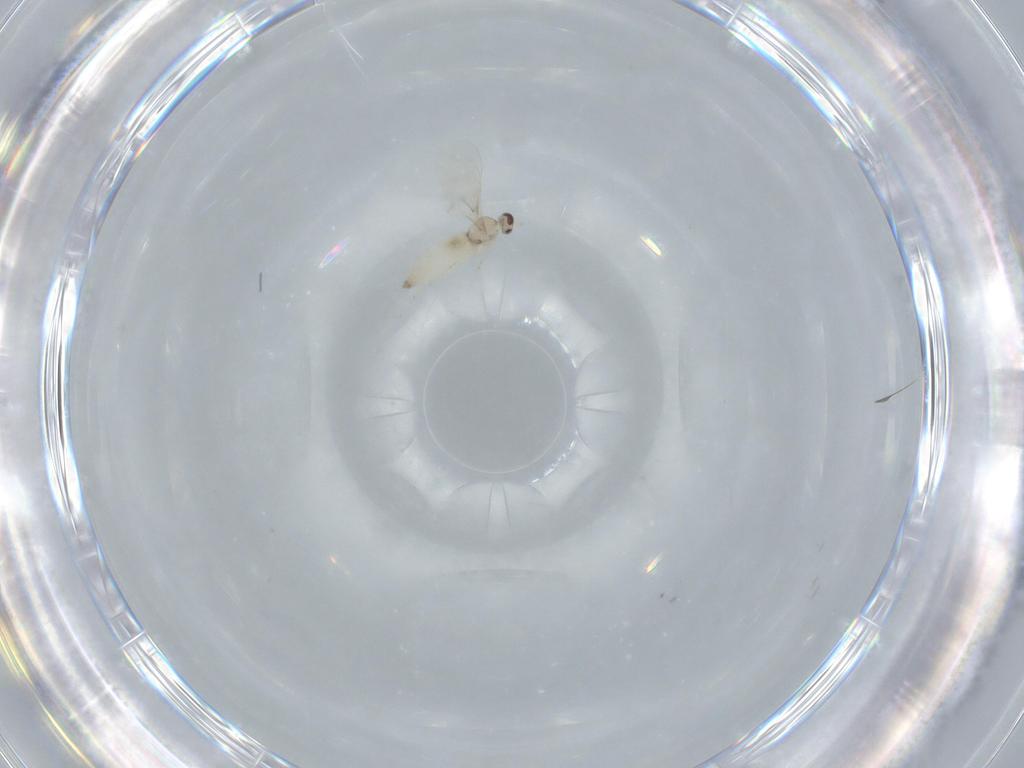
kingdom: Animalia
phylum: Arthropoda
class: Insecta
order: Diptera
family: Cecidomyiidae
